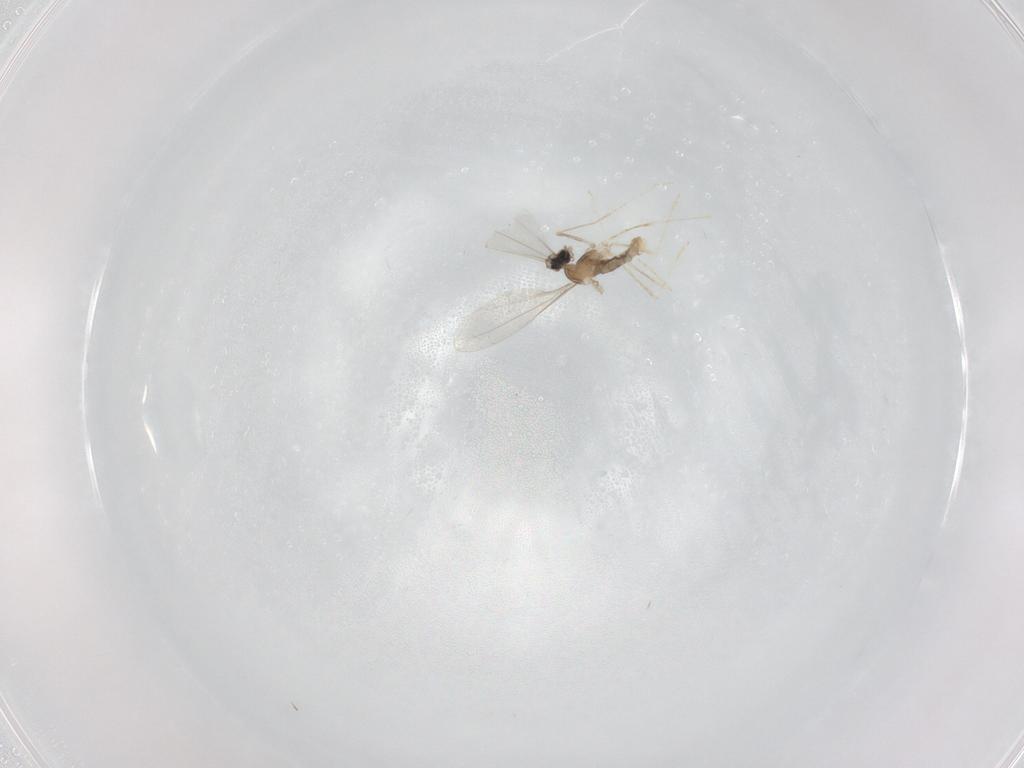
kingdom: Animalia
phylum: Arthropoda
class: Insecta
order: Diptera
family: Cecidomyiidae
